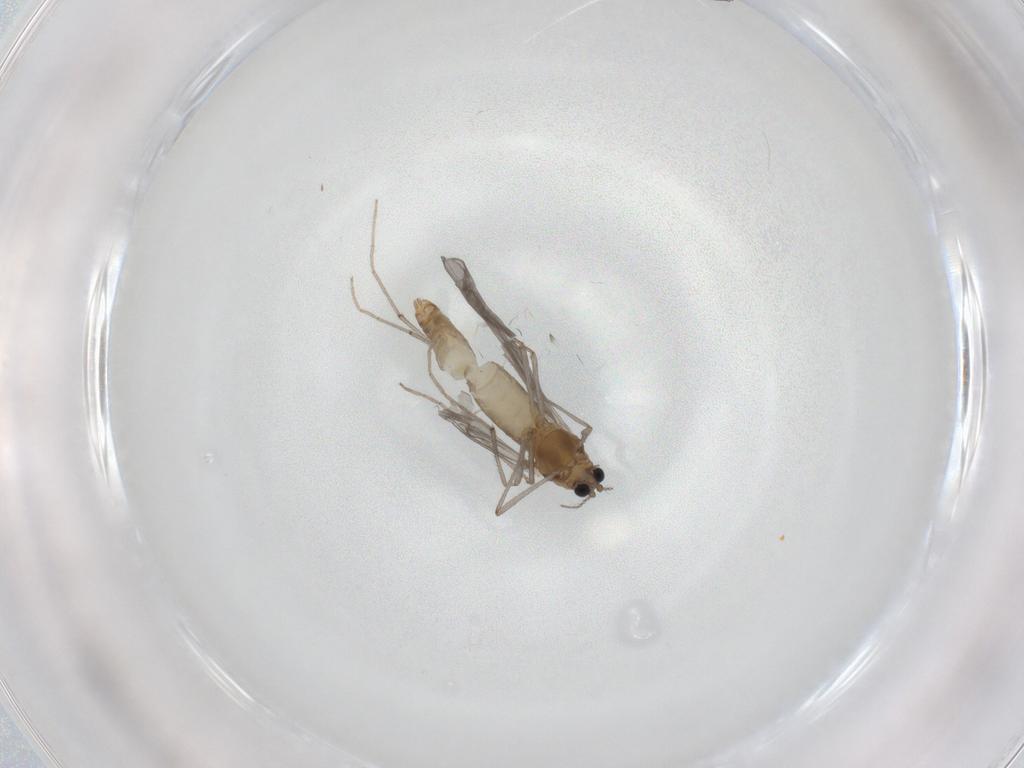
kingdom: Animalia
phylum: Arthropoda
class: Insecta
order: Diptera
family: Chironomidae
